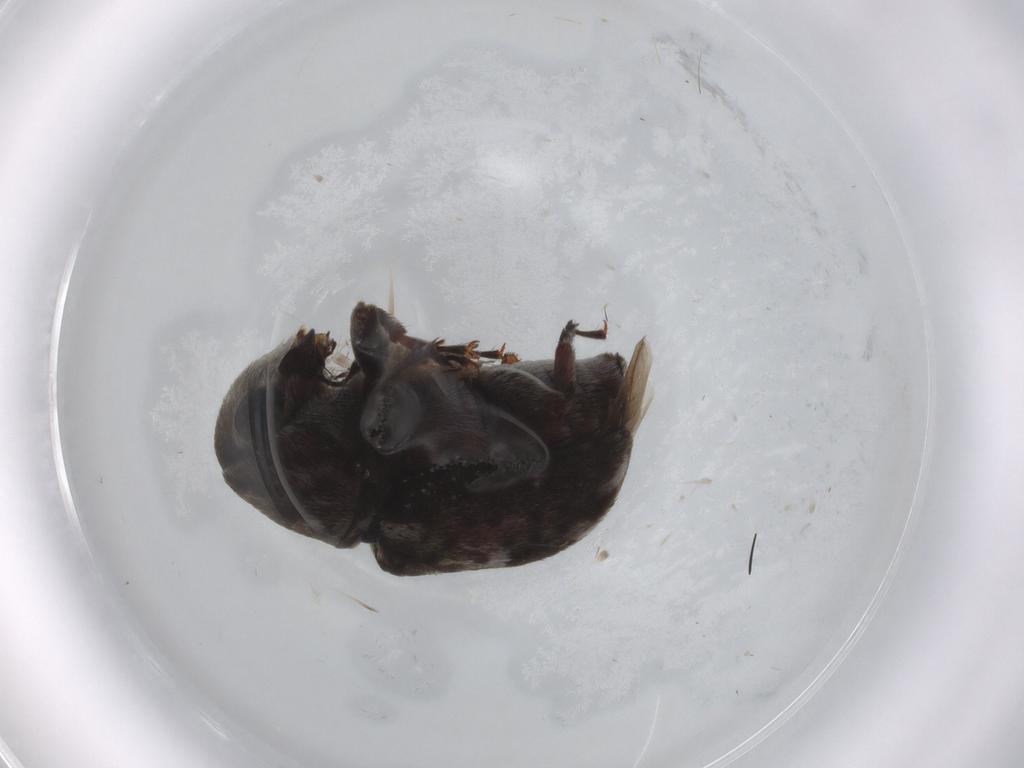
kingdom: Animalia
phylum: Arthropoda
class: Insecta
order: Coleoptera
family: Anthribidae
